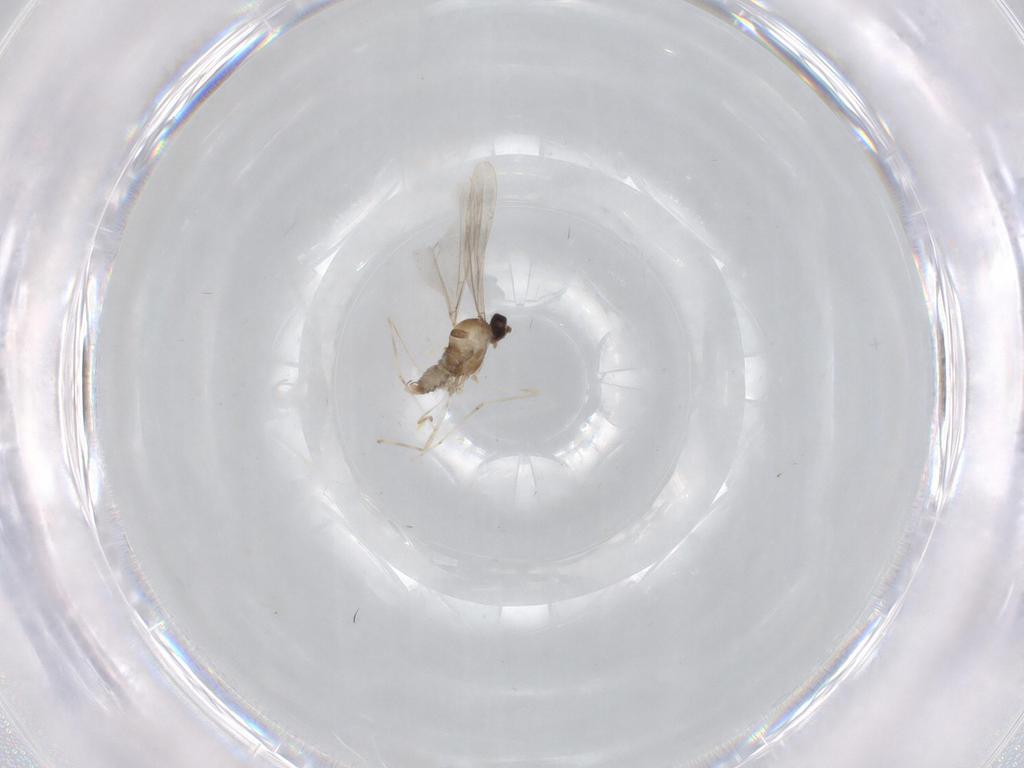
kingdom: Animalia
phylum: Arthropoda
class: Insecta
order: Diptera
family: Cecidomyiidae
